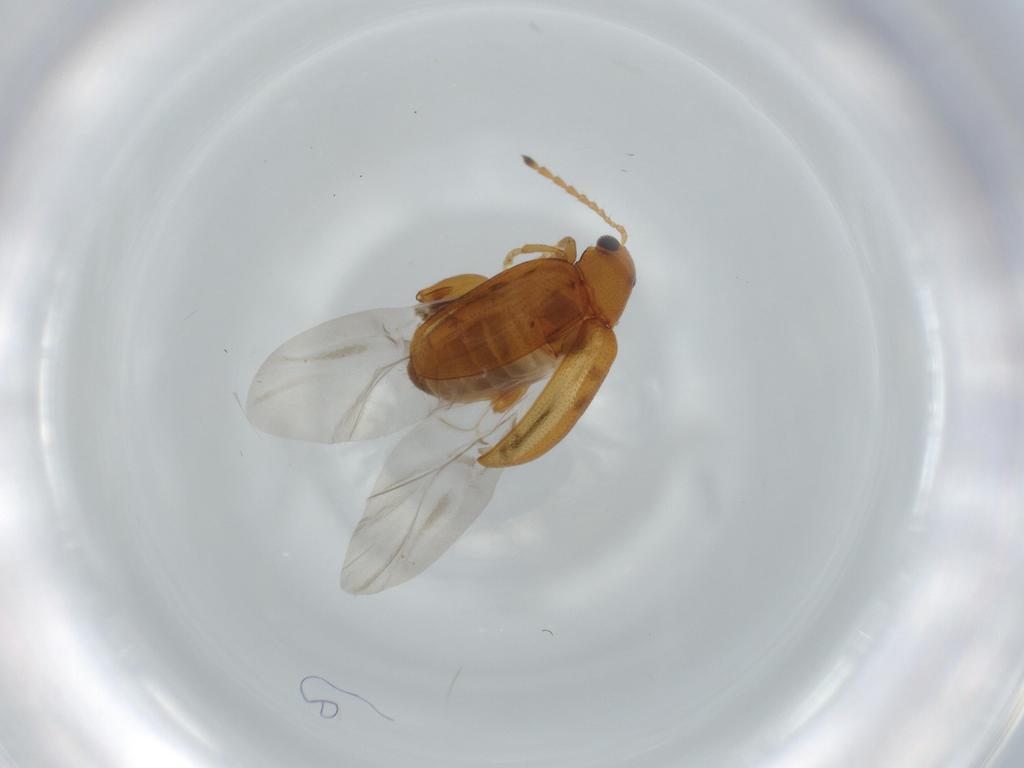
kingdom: Animalia
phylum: Arthropoda
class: Insecta
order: Coleoptera
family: Chrysomelidae
